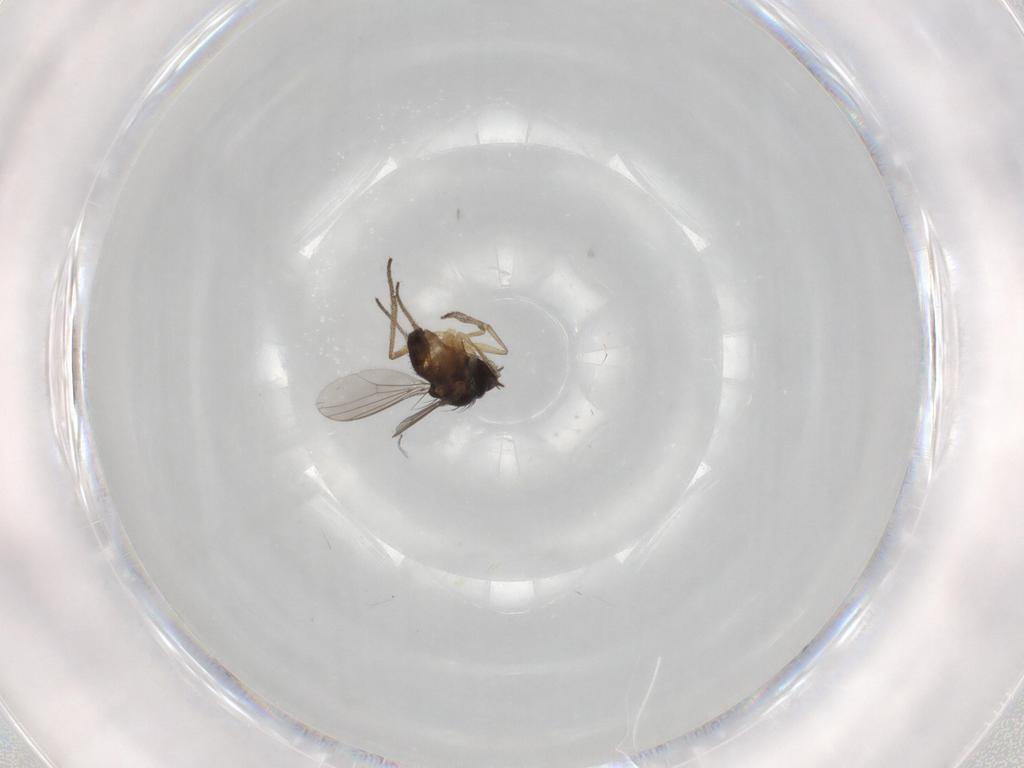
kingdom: Animalia
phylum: Arthropoda
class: Insecta
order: Diptera
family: Dolichopodidae
